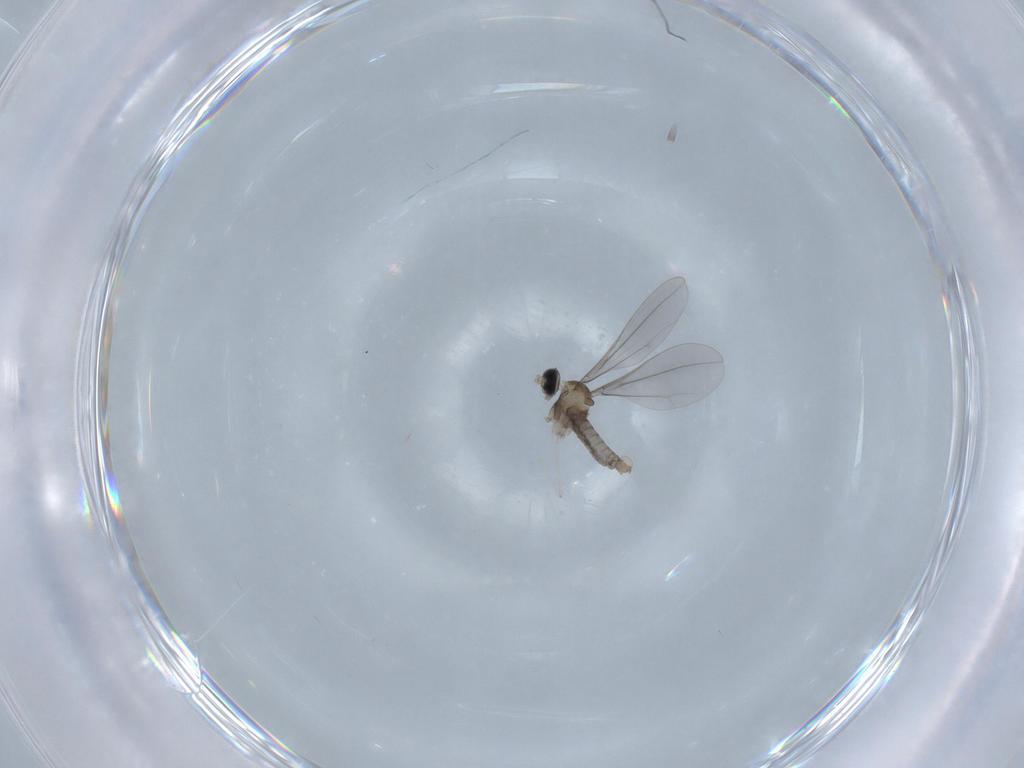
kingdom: Animalia
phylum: Arthropoda
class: Insecta
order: Diptera
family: Cecidomyiidae
